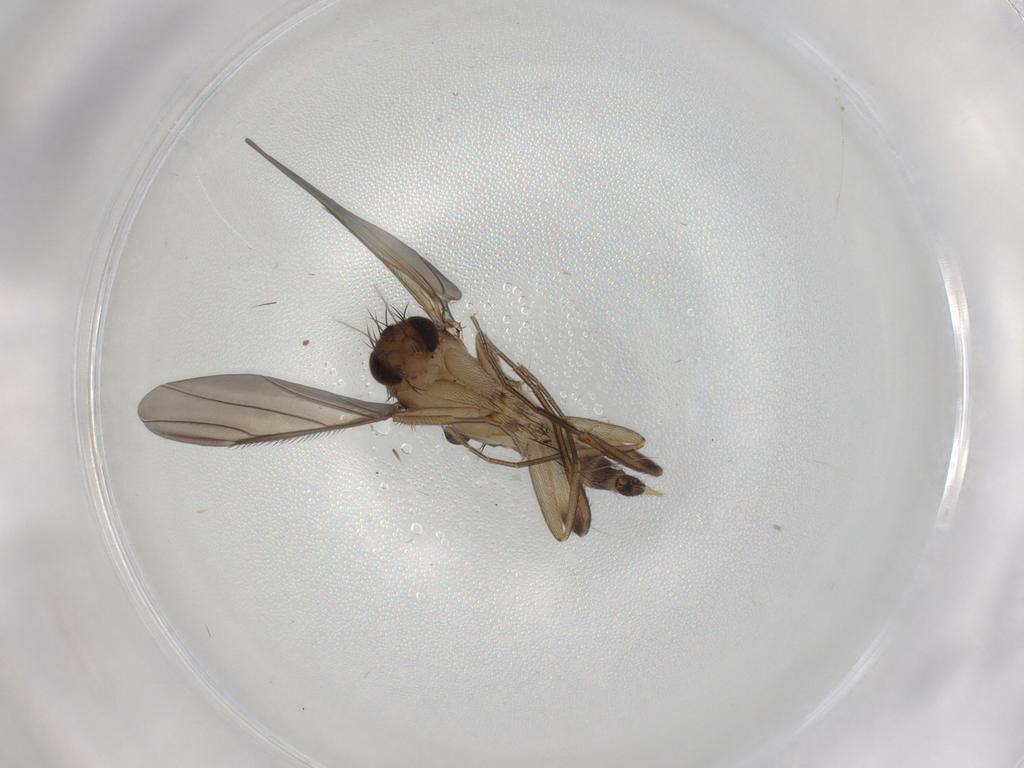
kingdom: Animalia
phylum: Arthropoda
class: Insecta
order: Diptera
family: Phoridae
